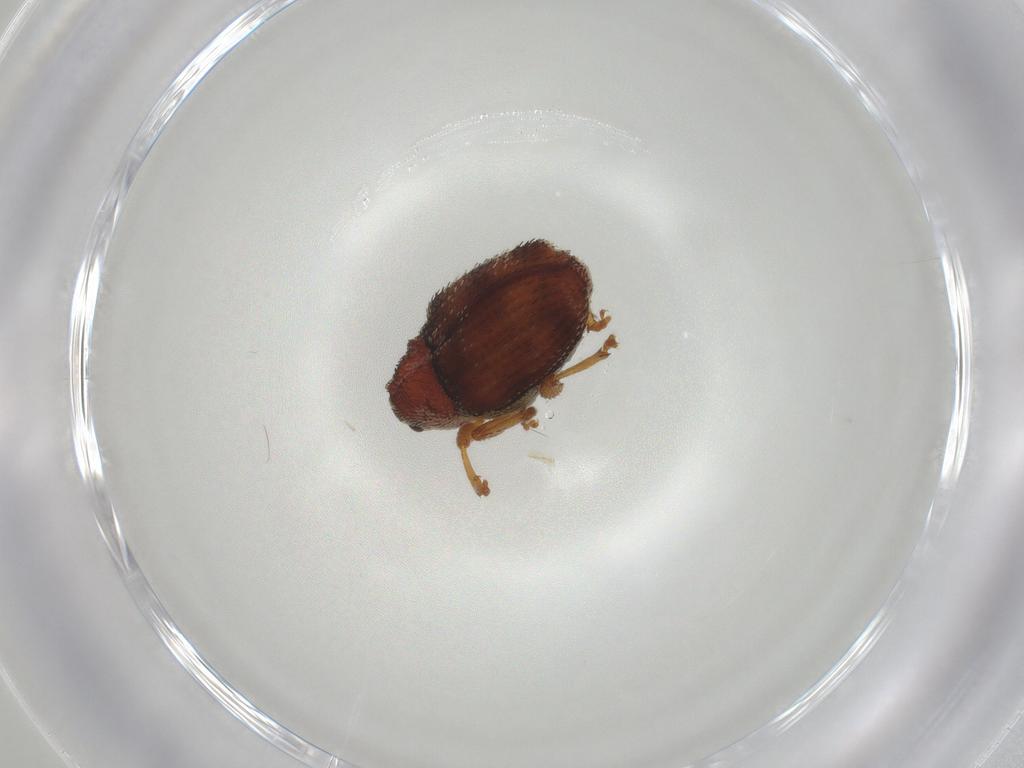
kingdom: Animalia
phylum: Arthropoda
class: Insecta
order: Coleoptera
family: Curculionidae
